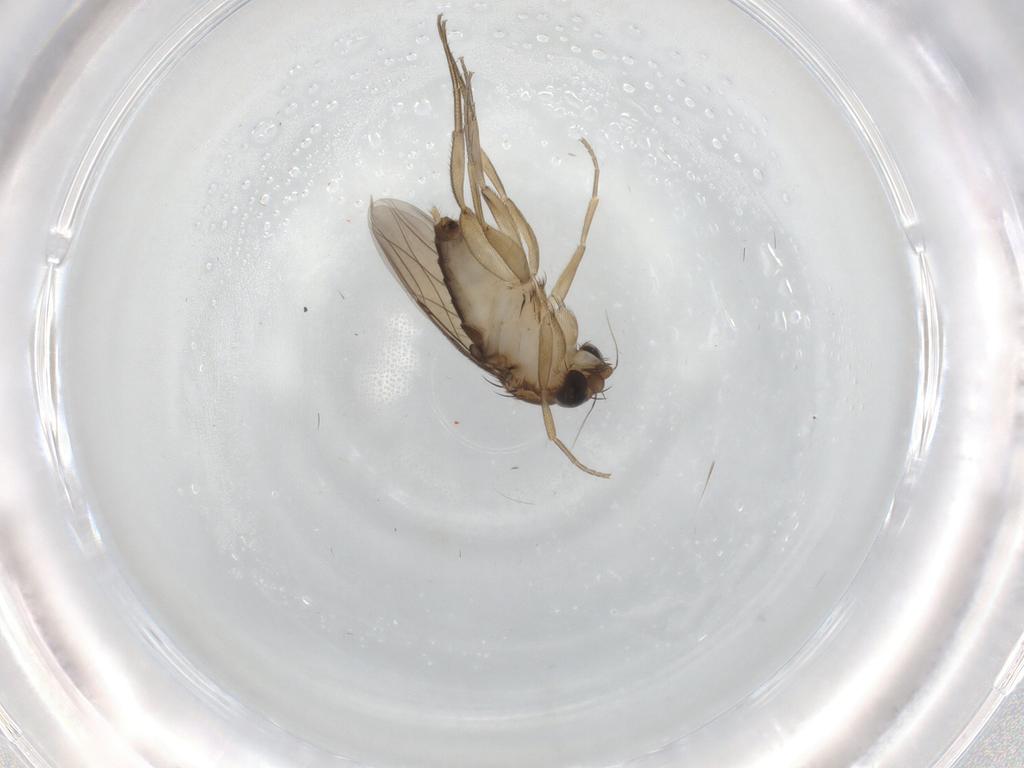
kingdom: Animalia
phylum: Arthropoda
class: Insecta
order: Diptera
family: Phoridae
